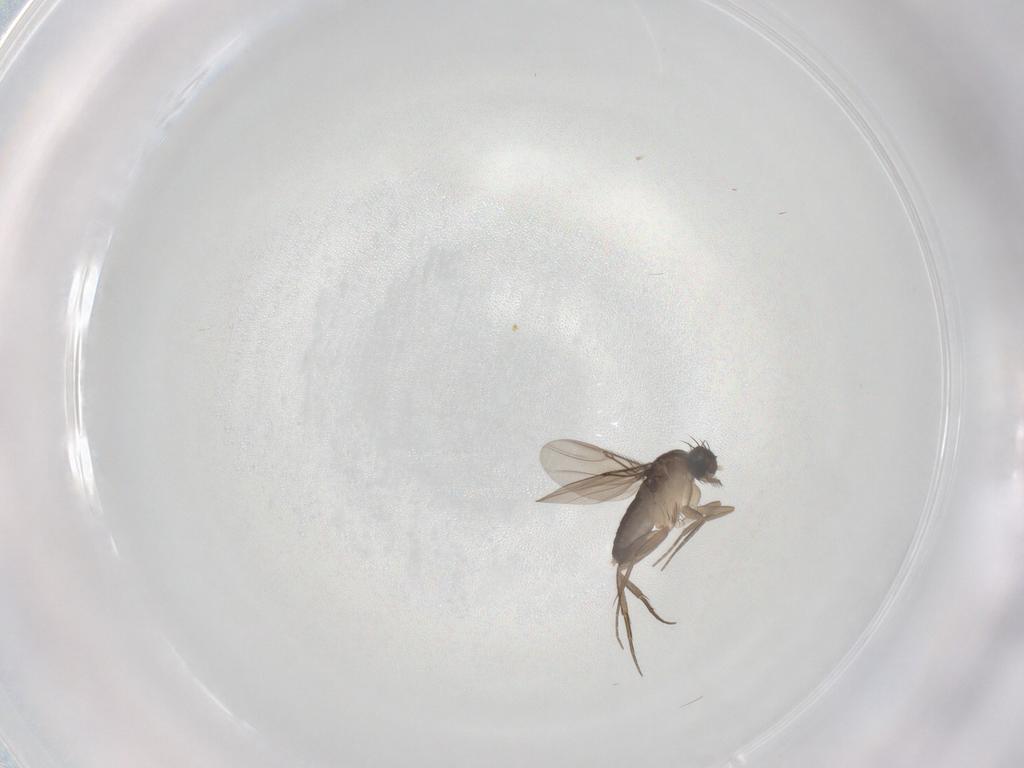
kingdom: Animalia
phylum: Arthropoda
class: Insecta
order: Diptera
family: Phoridae
